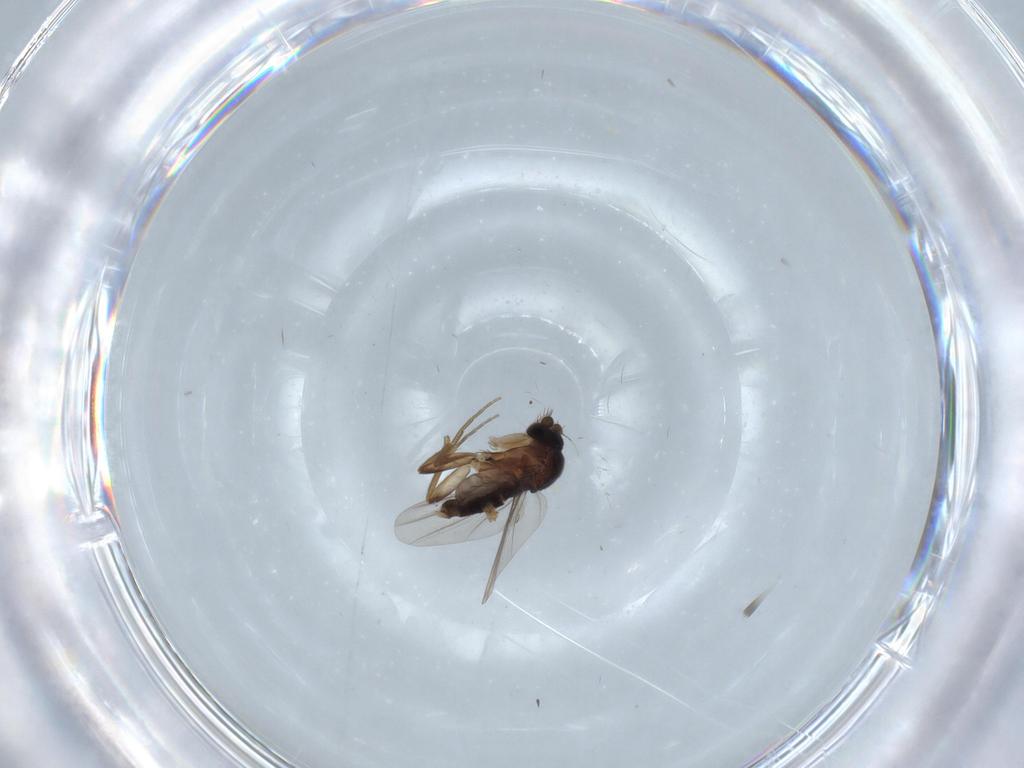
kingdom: Animalia
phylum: Arthropoda
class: Insecta
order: Diptera
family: Phoridae
